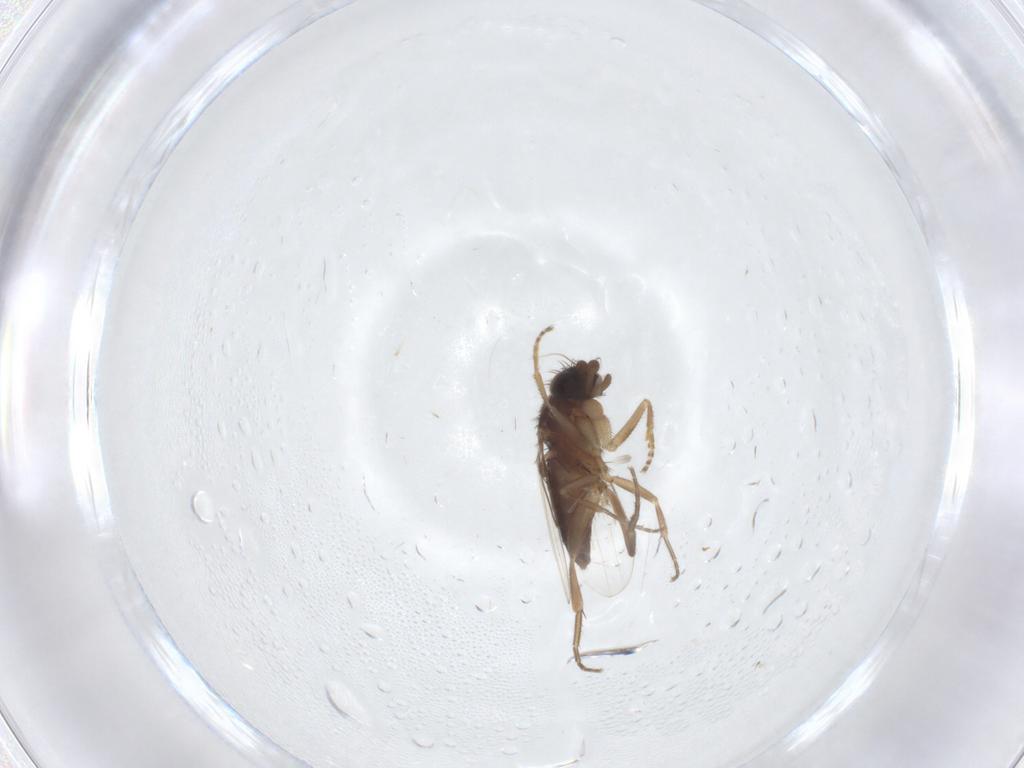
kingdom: Animalia
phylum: Arthropoda
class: Insecta
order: Diptera
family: Phoridae
